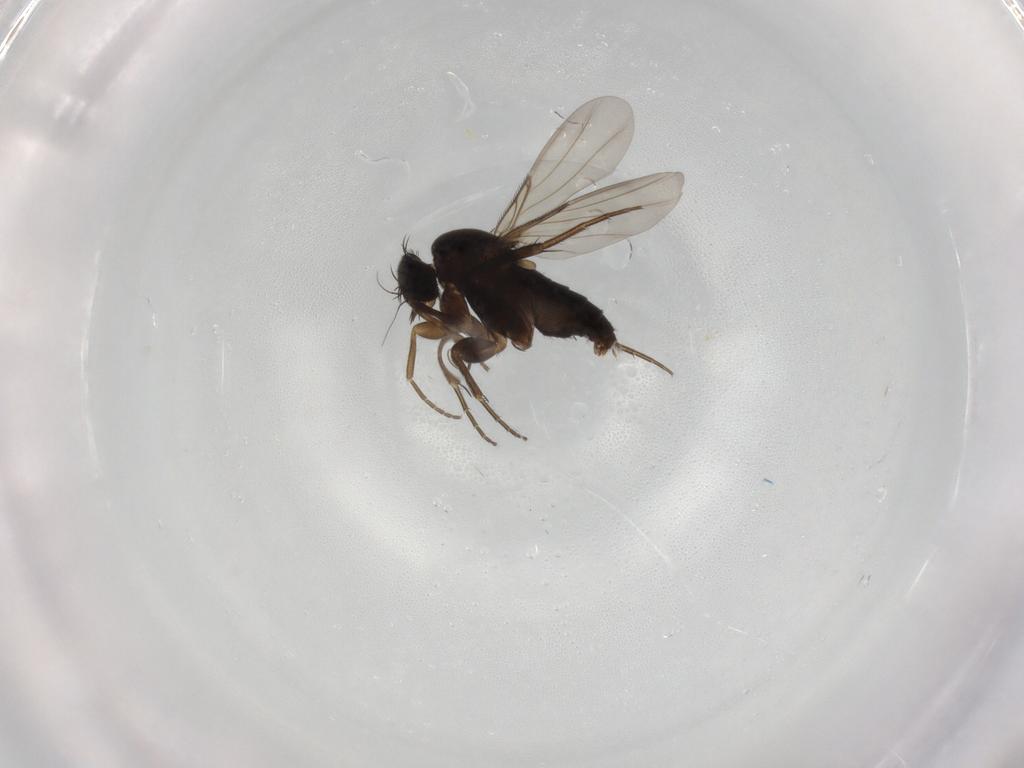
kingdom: Animalia
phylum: Arthropoda
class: Insecta
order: Diptera
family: Phoridae
